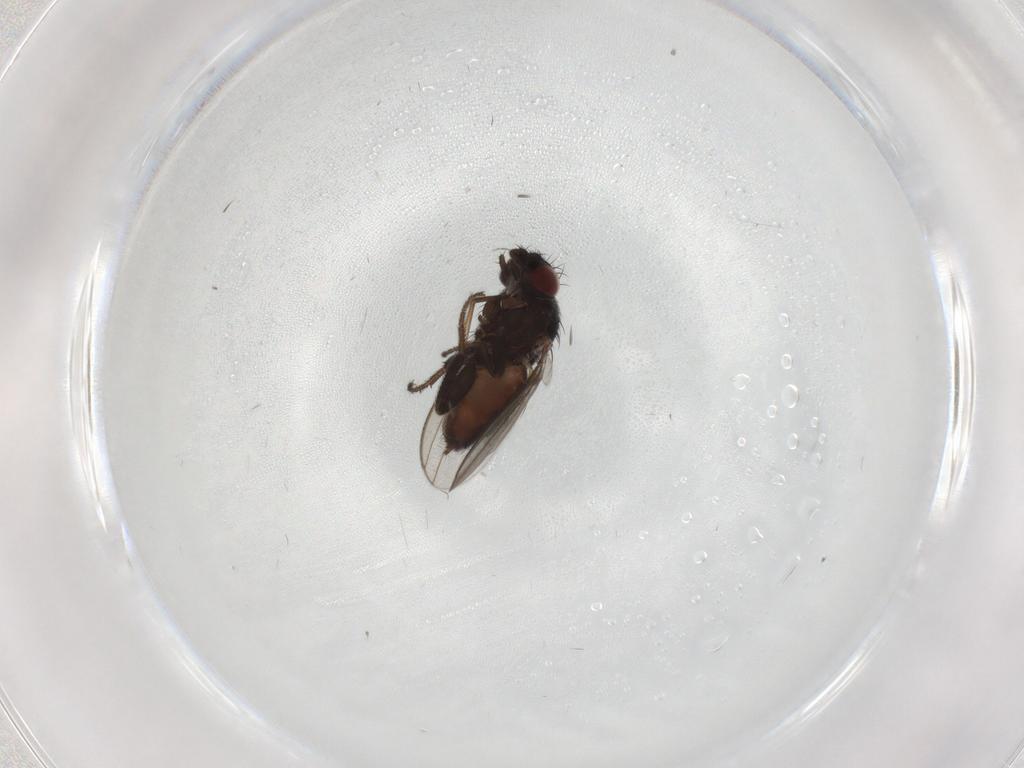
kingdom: Animalia
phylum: Arthropoda
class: Insecta
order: Diptera
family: Milichiidae
